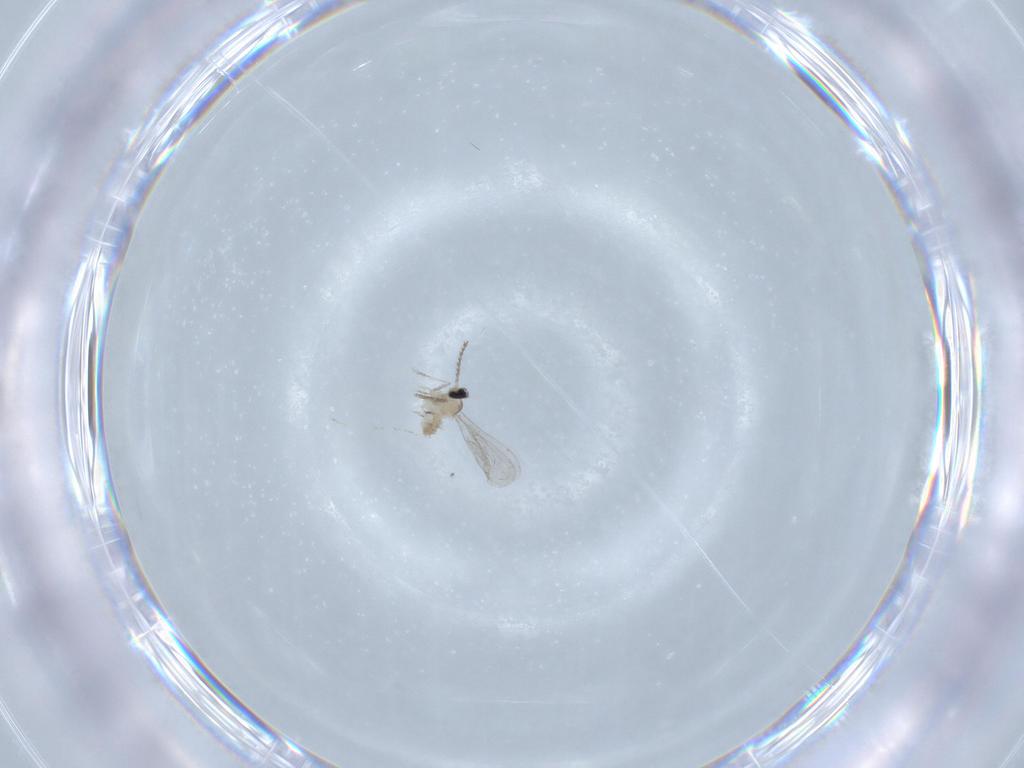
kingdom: Animalia
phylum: Arthropoda
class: Insecta
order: Diptera
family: Cecidomyiidae
